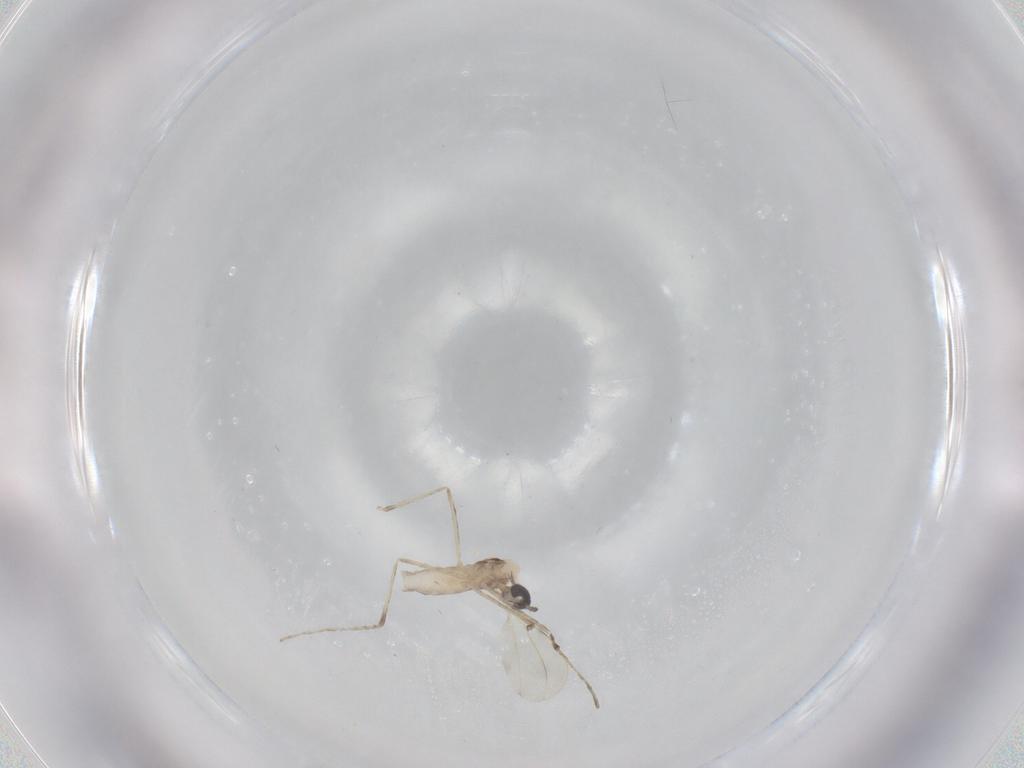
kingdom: Animalia
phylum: Arthropoda
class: Insecta
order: Diptera
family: Cecidomyiidae
